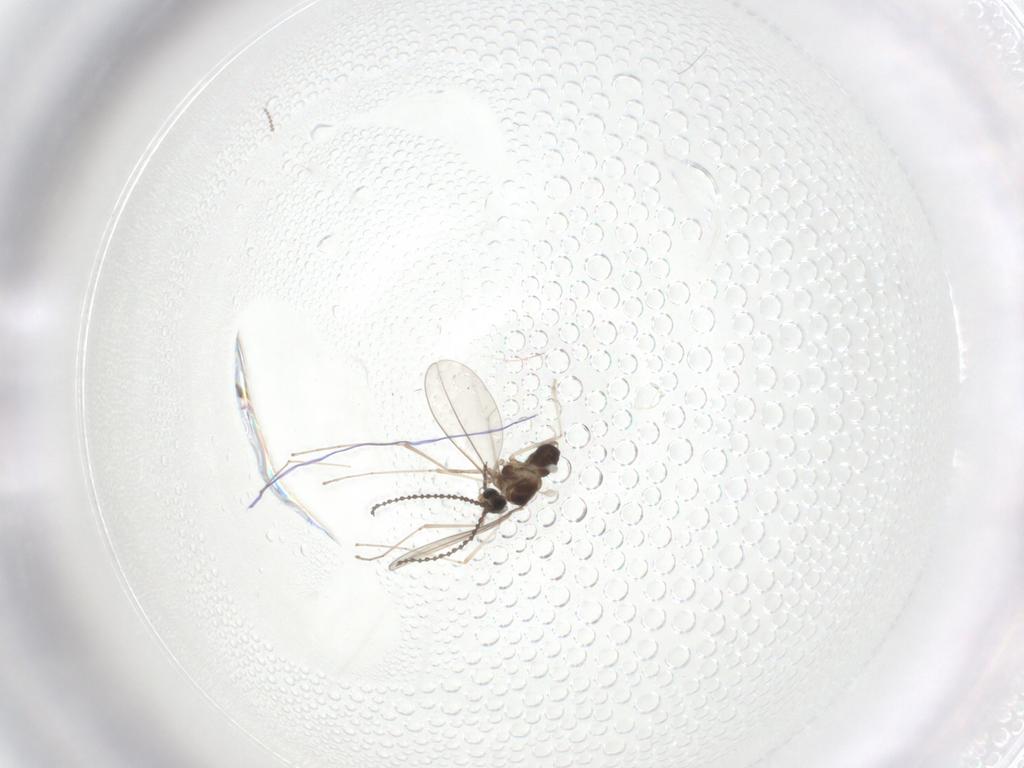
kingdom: Animalia
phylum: Arthropoda
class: Insecta
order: Diptera
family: Cecidomyiidae
